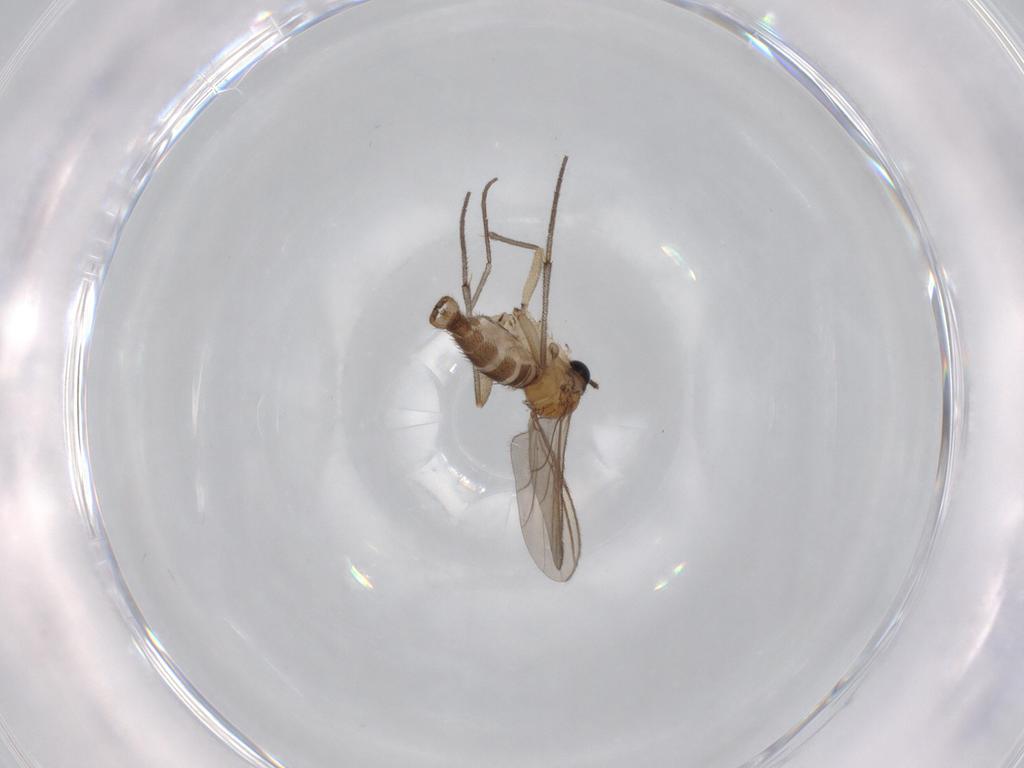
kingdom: Animalia
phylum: Arthropoda
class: Insecta
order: Diptera
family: Sciaridae
